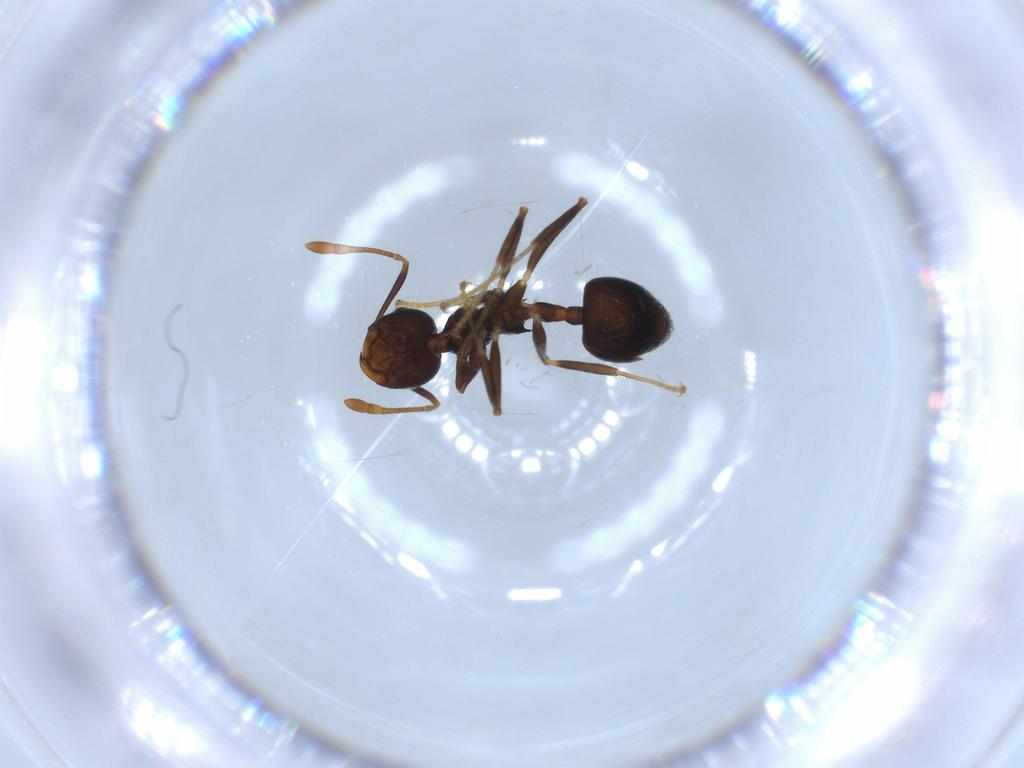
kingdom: Animalia
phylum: Arthropoda
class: Insecta
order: Hymenoptera
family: Formicidae
